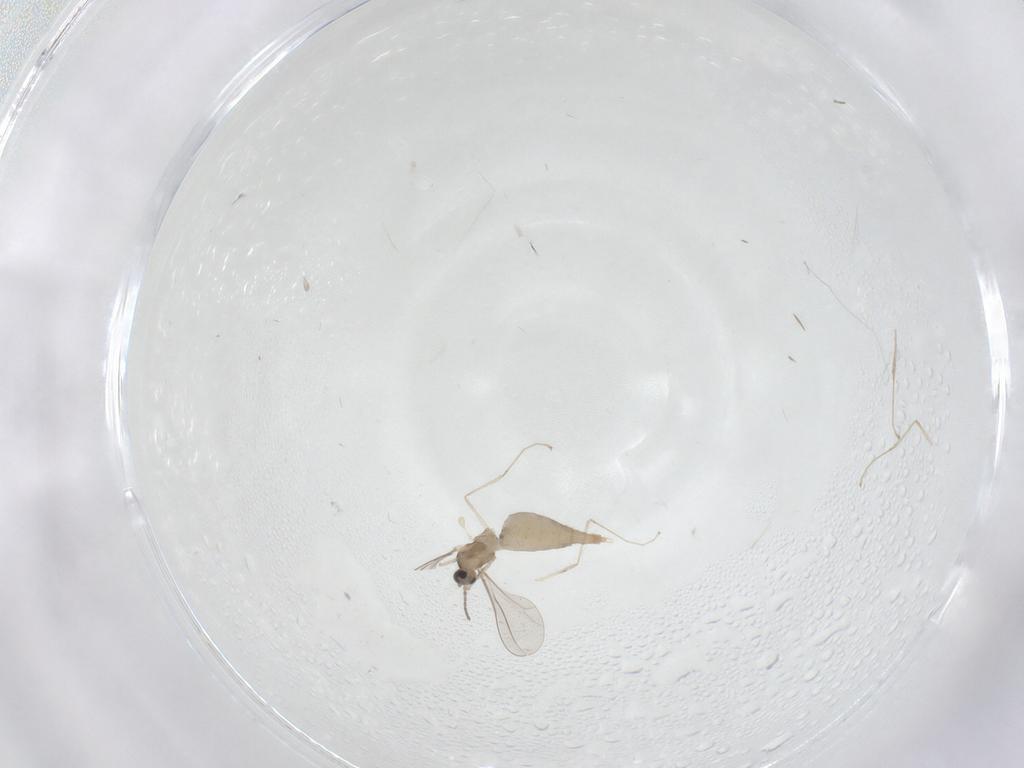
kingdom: Animalia
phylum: Arthropoda
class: Insecta
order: Diptera
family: Cecidomyiidae
